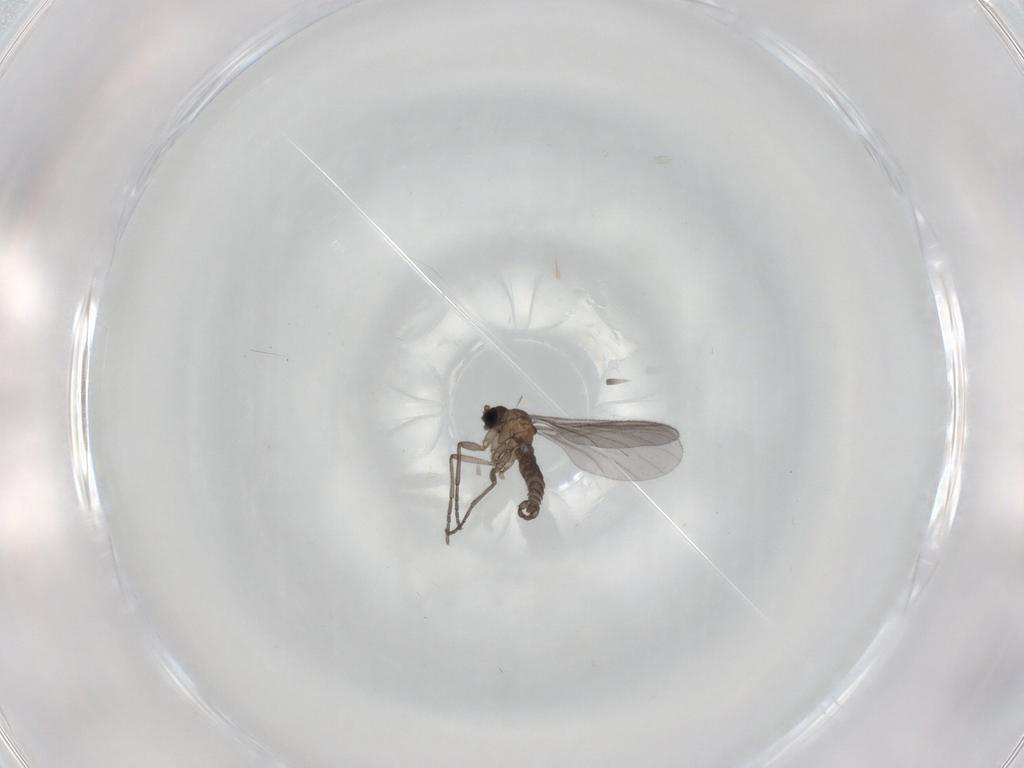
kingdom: Animalia
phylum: Arthropoda
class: Insecta
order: Diptera
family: Sciaridae
